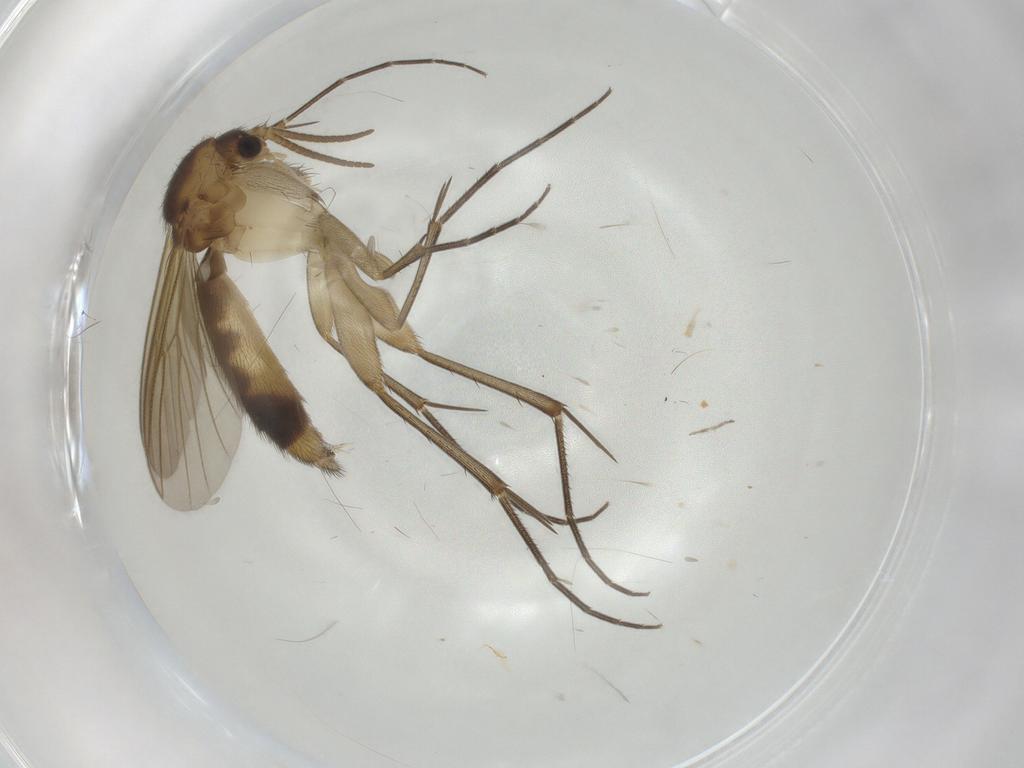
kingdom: Animalia
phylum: Arthropoda
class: Insecta
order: Diptera
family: Mycetophilidae
